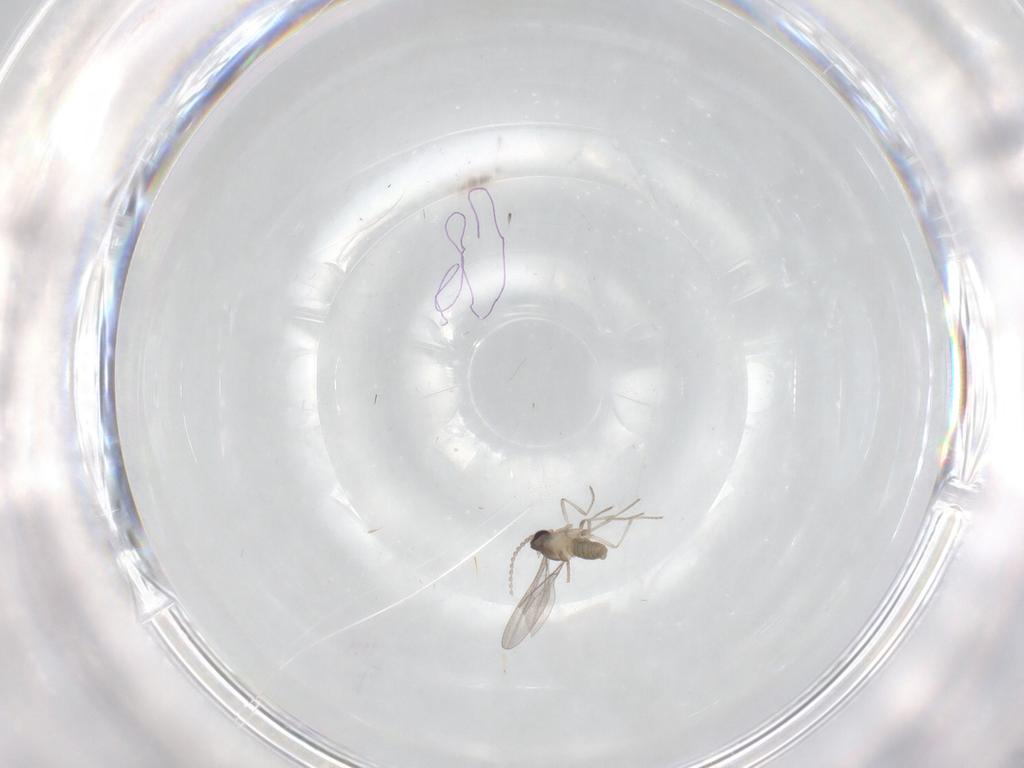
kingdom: Animalia
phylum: Arthropoda
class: Insecta
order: Diptera
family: Cecidomyiidae
